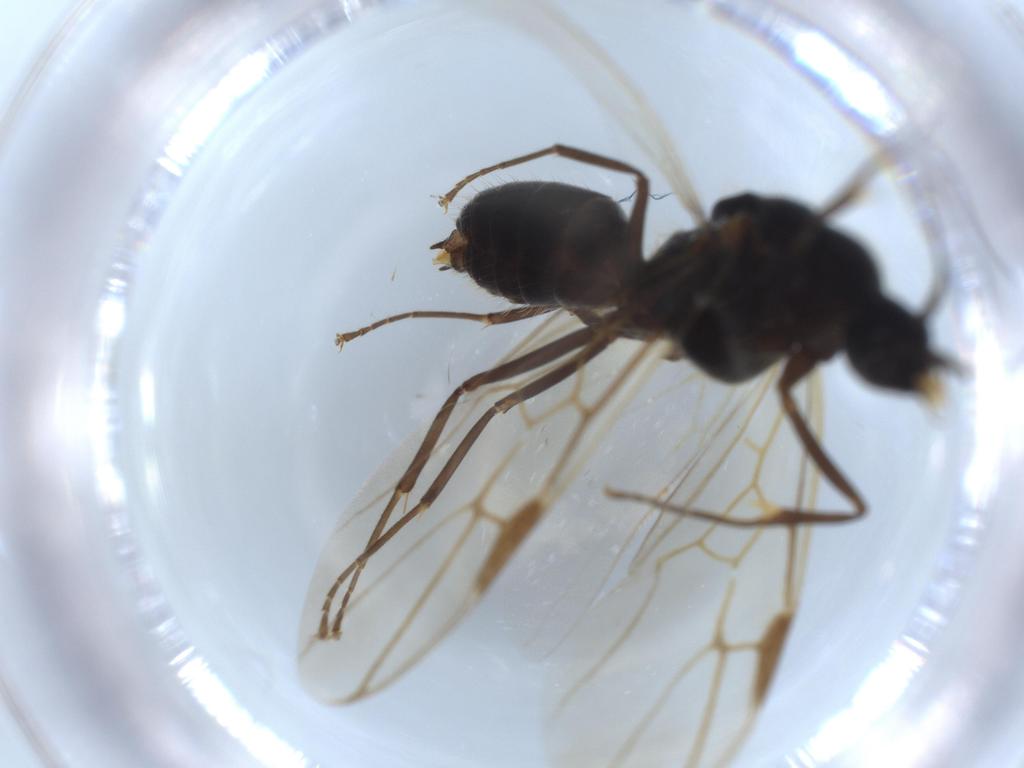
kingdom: Animalia
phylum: Arthropoda
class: Insecta
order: Hymenoptera
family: Formicidae
